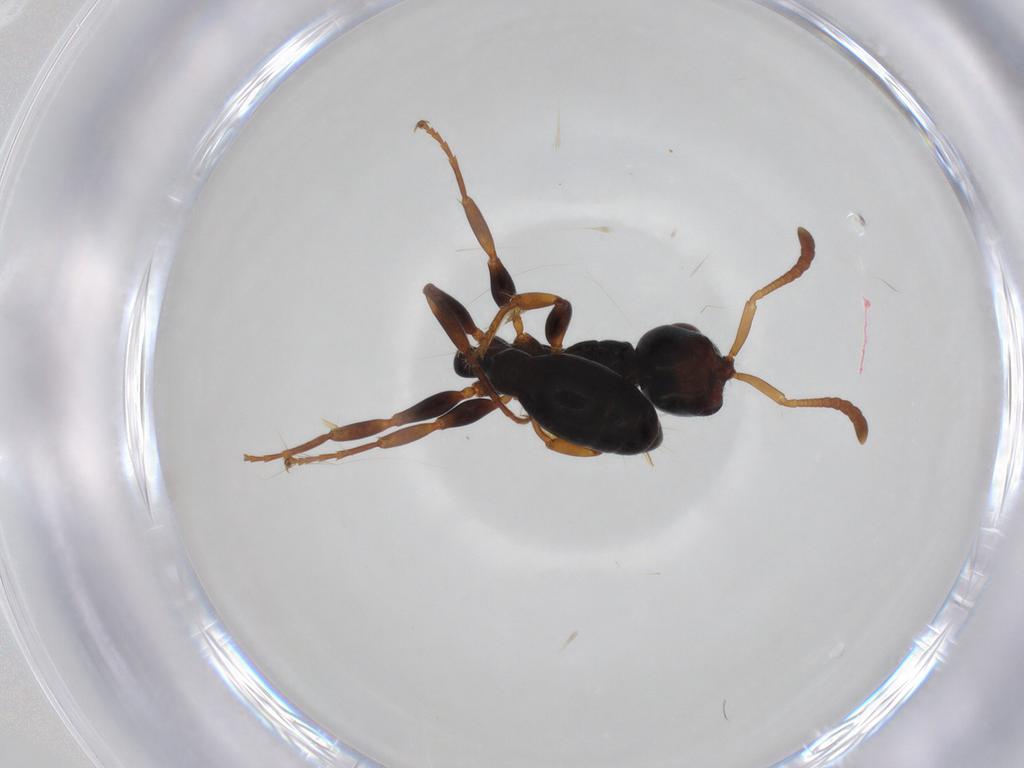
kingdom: Animalia
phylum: Arthropoda
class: Insecta
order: Hymenoptera
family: Formicidae
